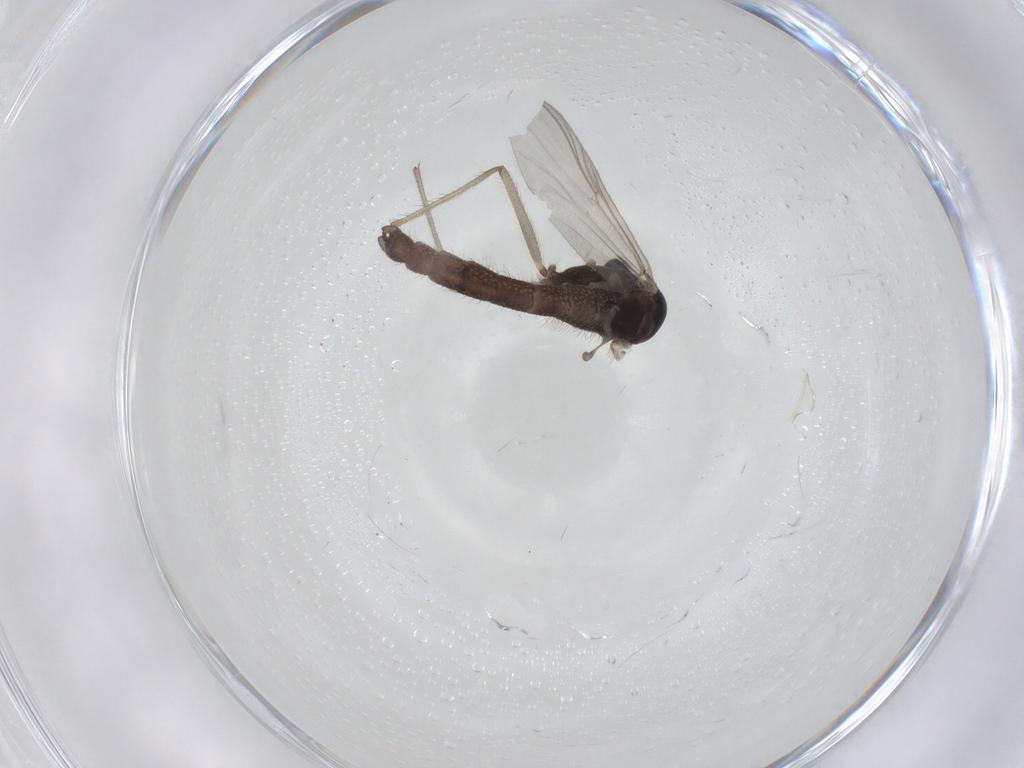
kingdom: Animalia
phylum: Arthropoda
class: Insecta
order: Diptera
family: Chironomidae
